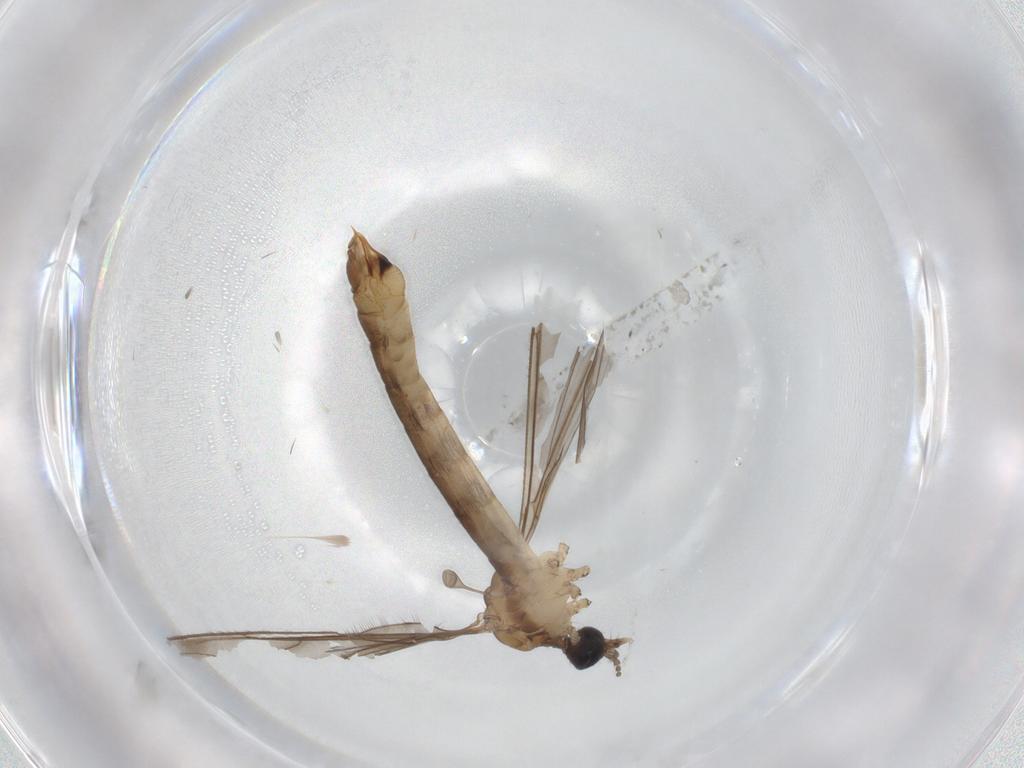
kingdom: Animalia
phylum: Arthropoda
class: Insecta
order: Diptera
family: Limoniidae
